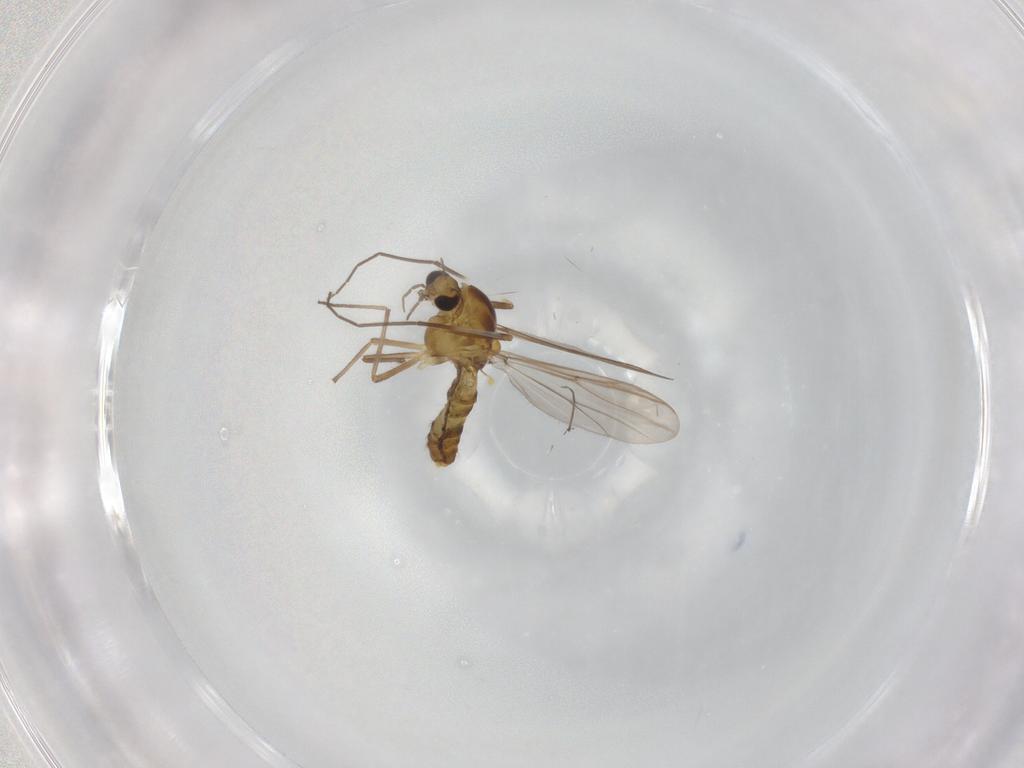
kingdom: Animalia
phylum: Arthropoda
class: Insecta
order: Diptera
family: Chironomidae
